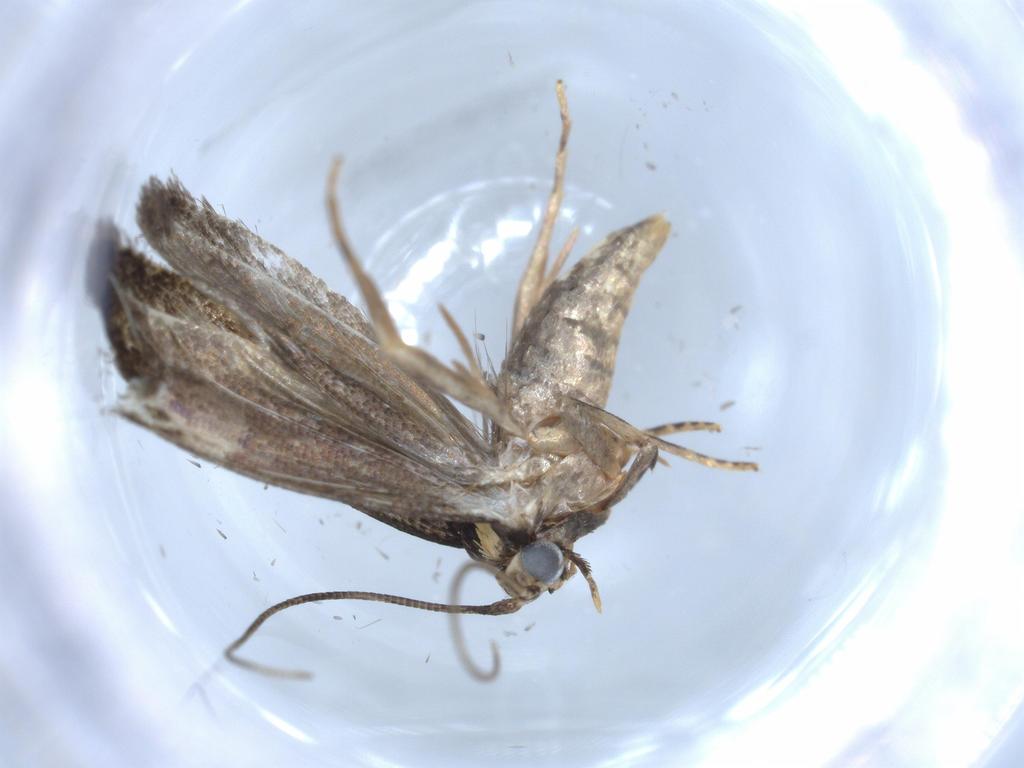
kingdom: Animalia
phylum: Arthropoda
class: Insecta
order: Lepidoptera
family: Tineidae
